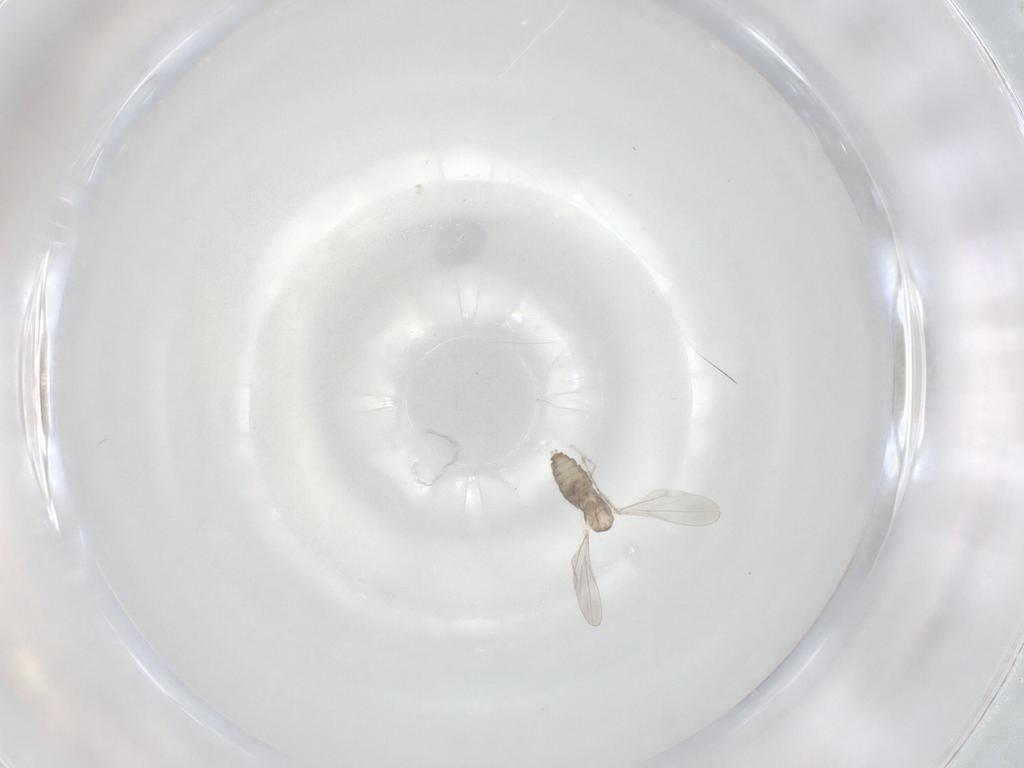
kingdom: Animalia
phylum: Arthropoda
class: Insecta
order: Diptera
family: Cecidomyiidae
